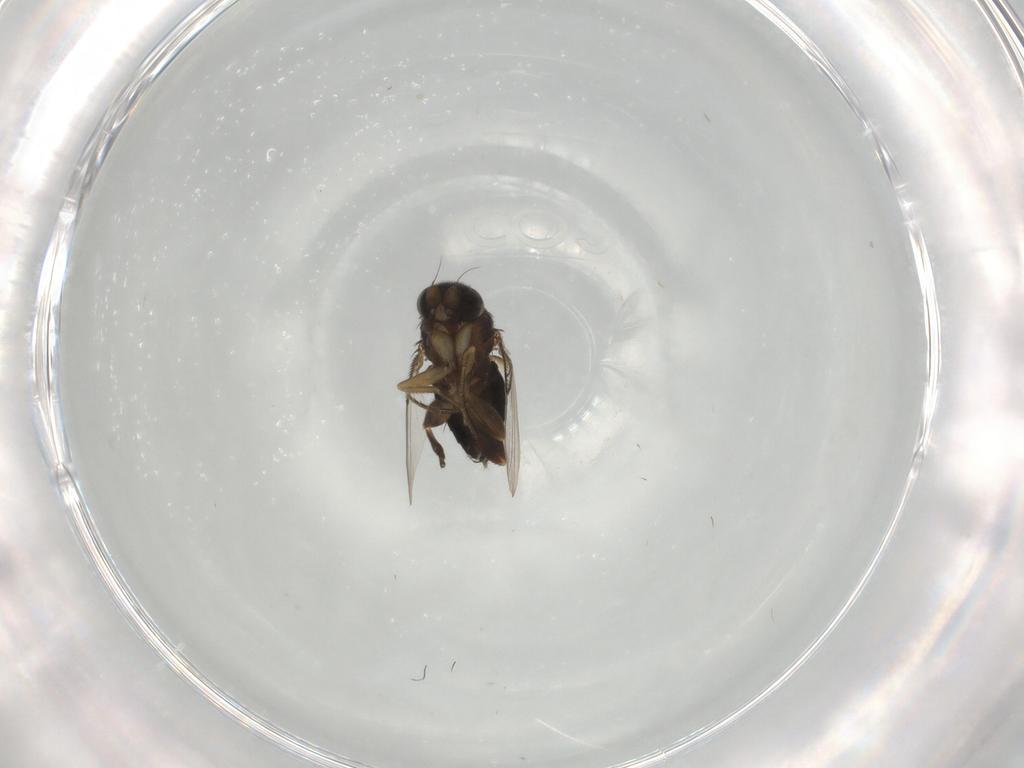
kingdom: Animalia
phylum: Arthropoda
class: Insecta
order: Diptera
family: Phoridae
